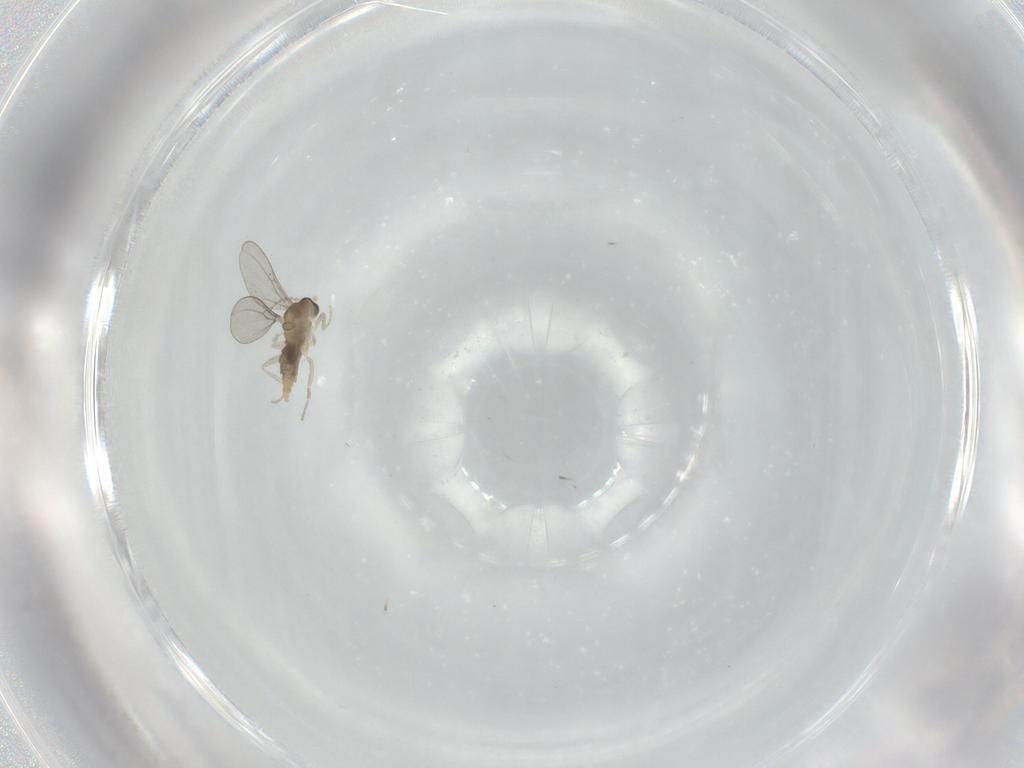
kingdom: Animalia
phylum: Arthropoda
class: Insecta
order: Diptera
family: Cecidomyiidae
